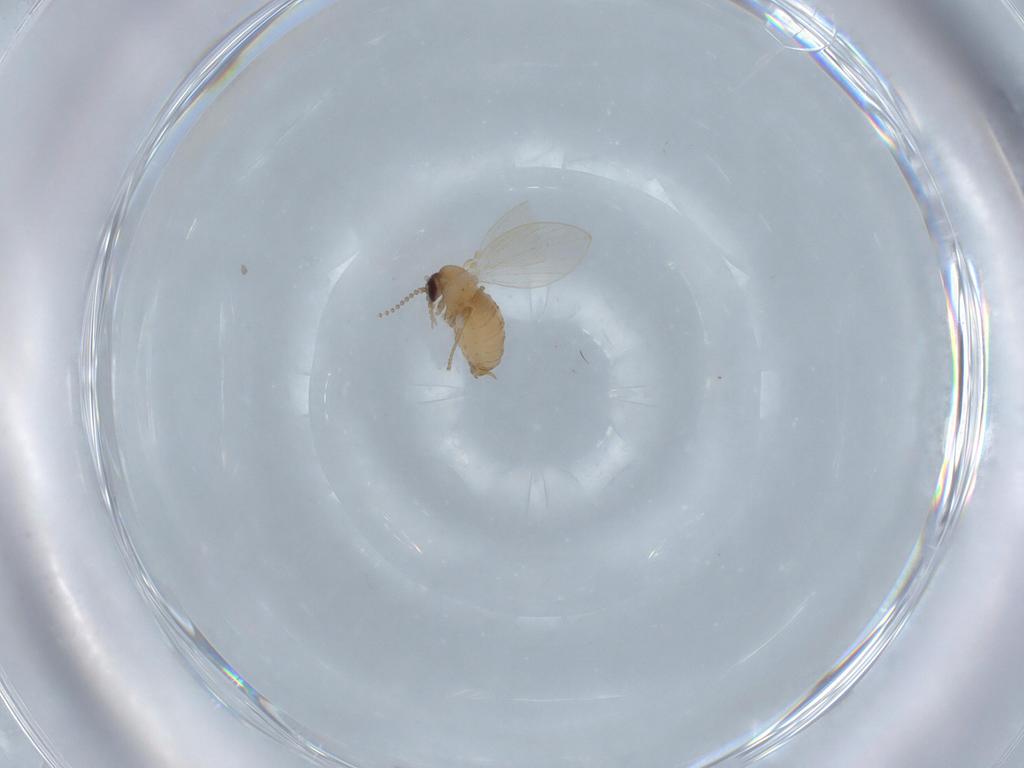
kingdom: Animalia
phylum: Arthropoda
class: Insecta
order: Diptera
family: Psychodidae
